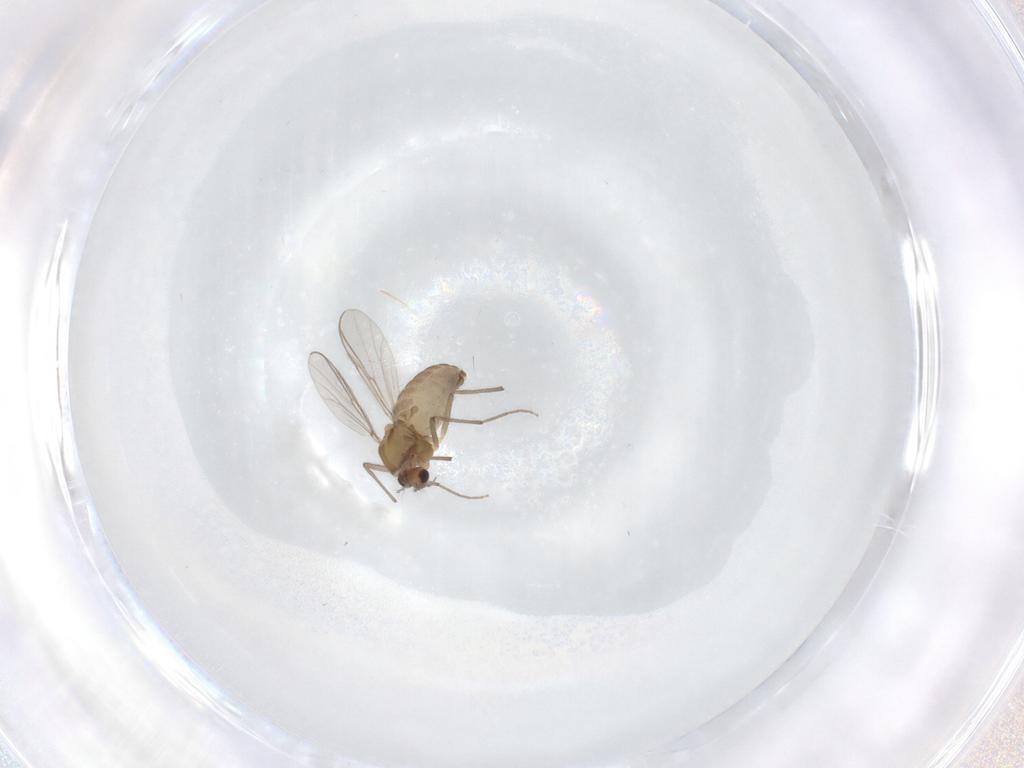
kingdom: Animalia
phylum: Arthropoda
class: Insecta
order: Diptera
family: Chironomidae
